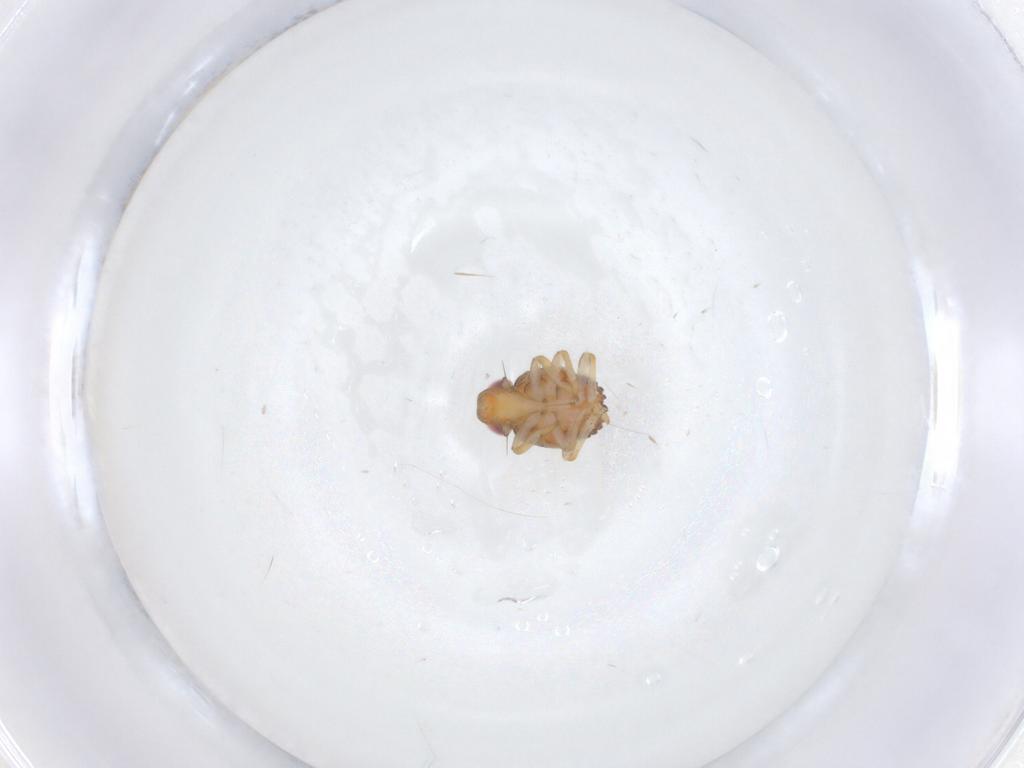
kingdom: Animalia
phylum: Arthropoda
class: Insecta
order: Hemiptera
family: Issidae
